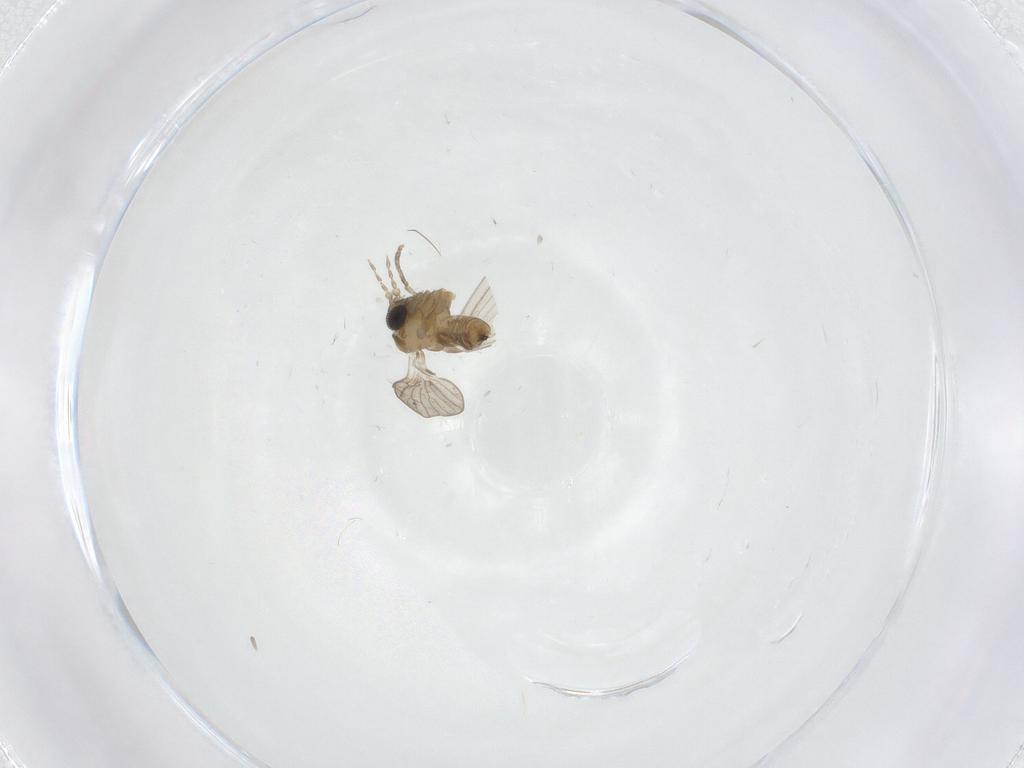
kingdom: Animalia
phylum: Arthropoda
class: Insecta
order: Diptera
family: Psychodidae
